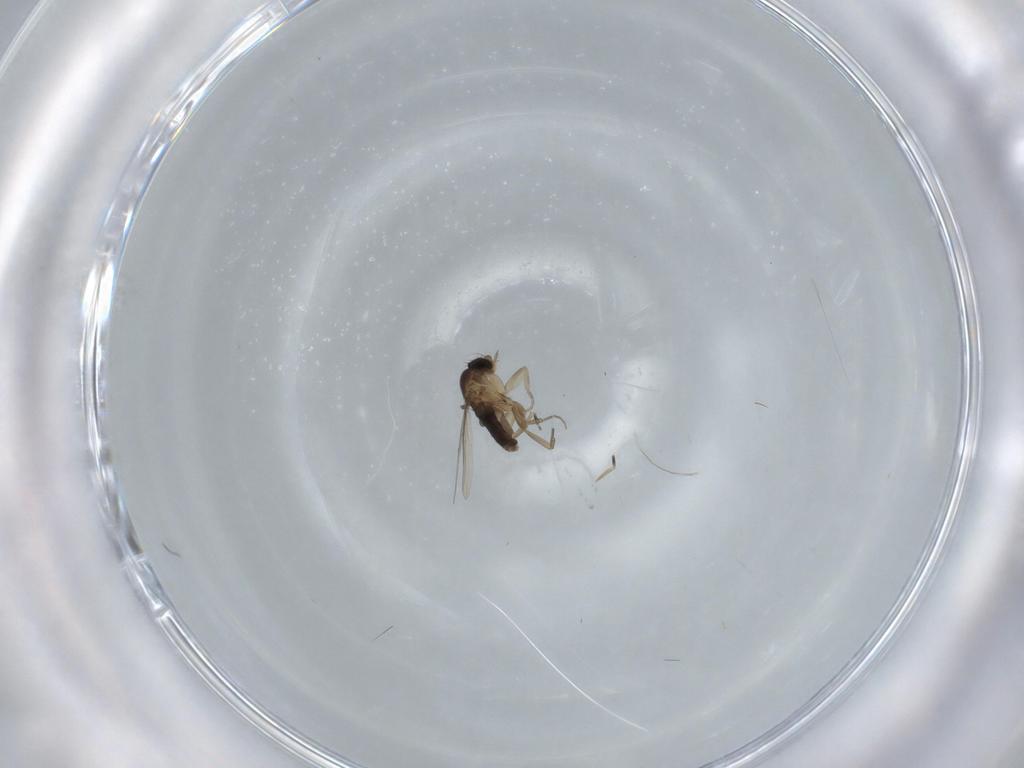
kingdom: Animalia
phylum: Arthropoda
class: Insecta
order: Diptera
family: Phoridae
